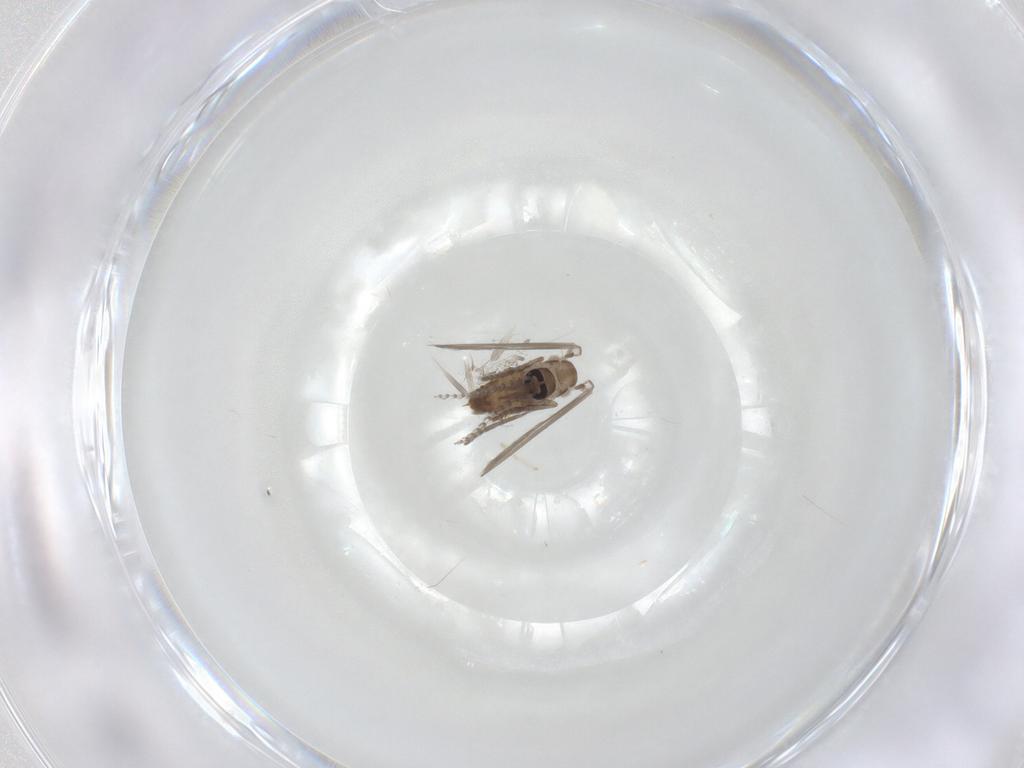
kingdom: Animalia
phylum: Arthropoda
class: Insecta
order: Diptera
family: Psychodidae
